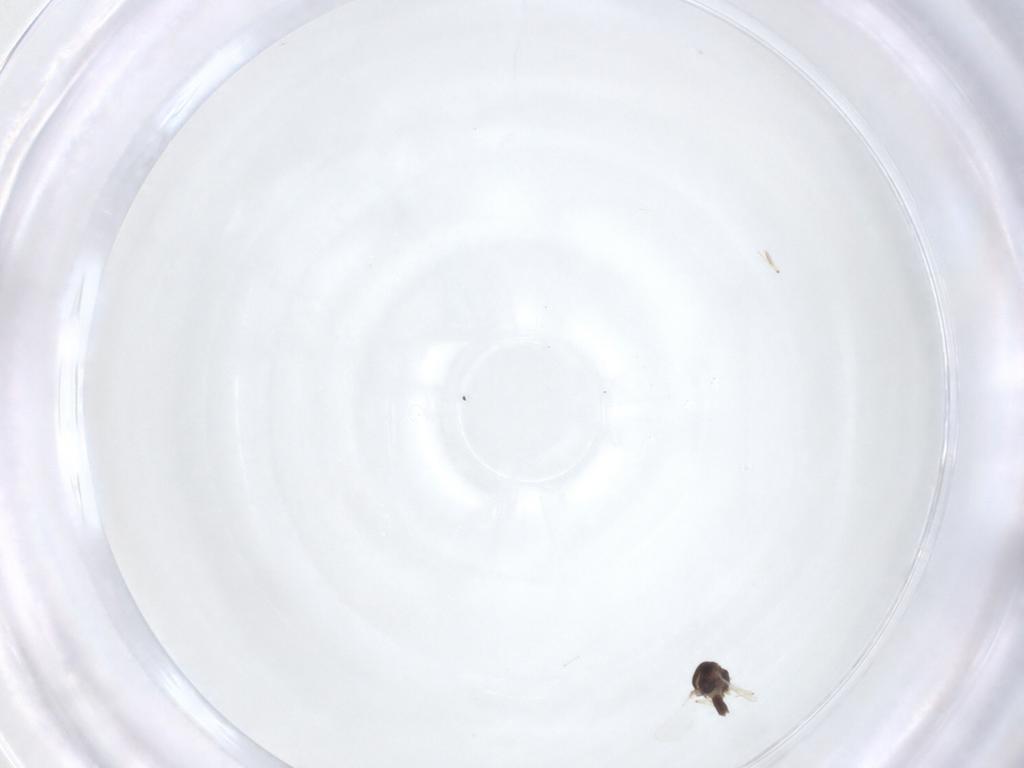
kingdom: Animalia
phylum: Arthropoda
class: Insecta
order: Diptera
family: Chironomidae
